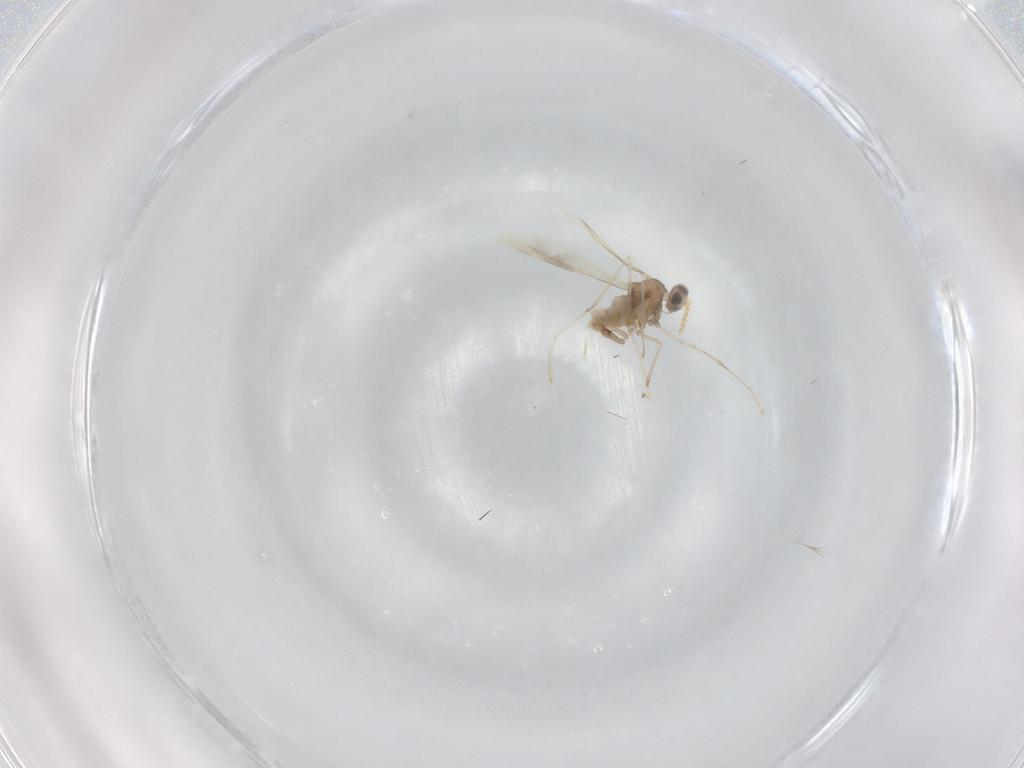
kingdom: Animalia
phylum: Arthropoda
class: Insecta
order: Diptera
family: Cecidomyiidae
